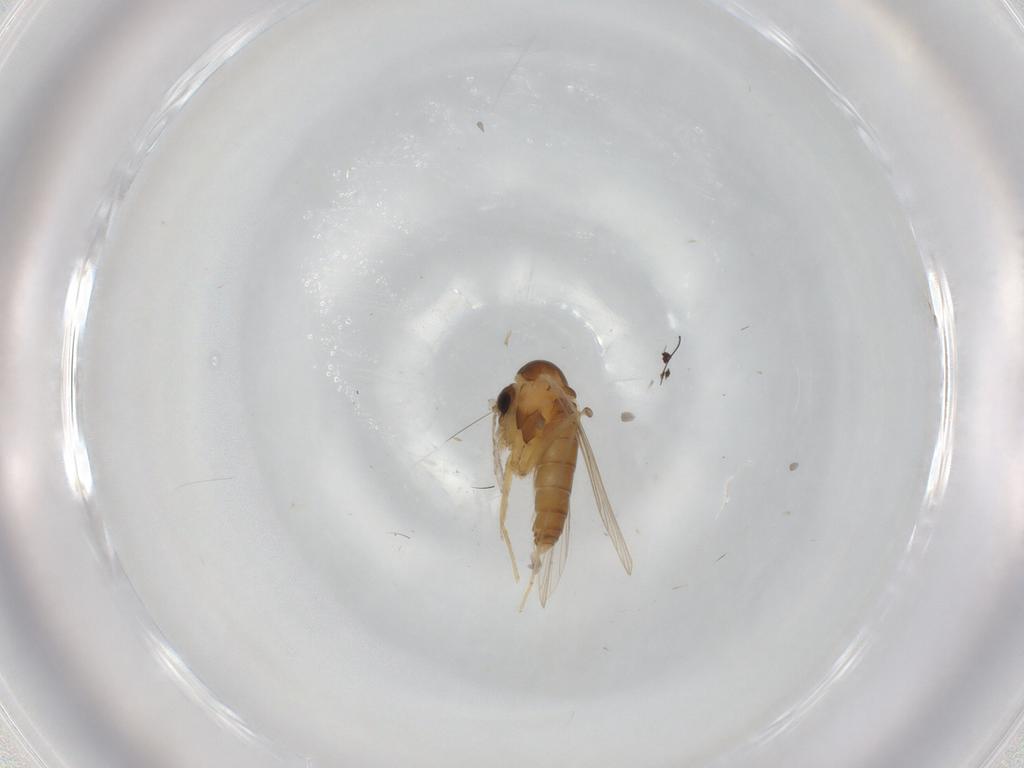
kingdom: Animalia
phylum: Arthropoda
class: Insecta
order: Diptera
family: Psychodidae
